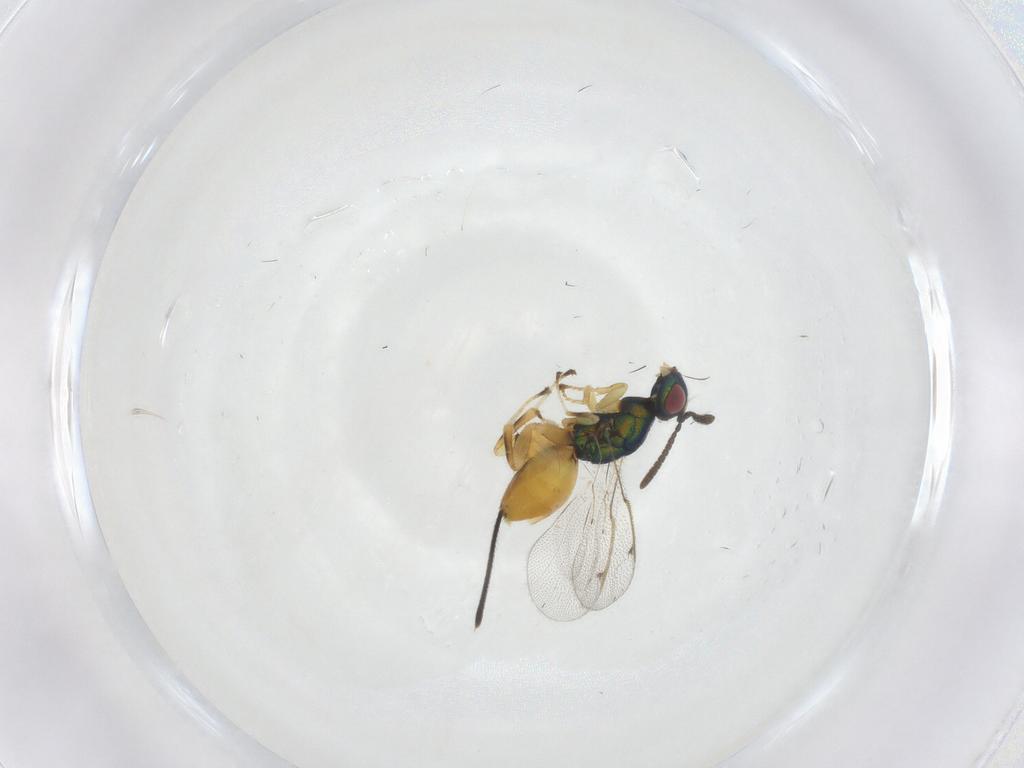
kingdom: Animalia
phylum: Arthropoda
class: Insecta
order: Hymenoptera
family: Torymidae
